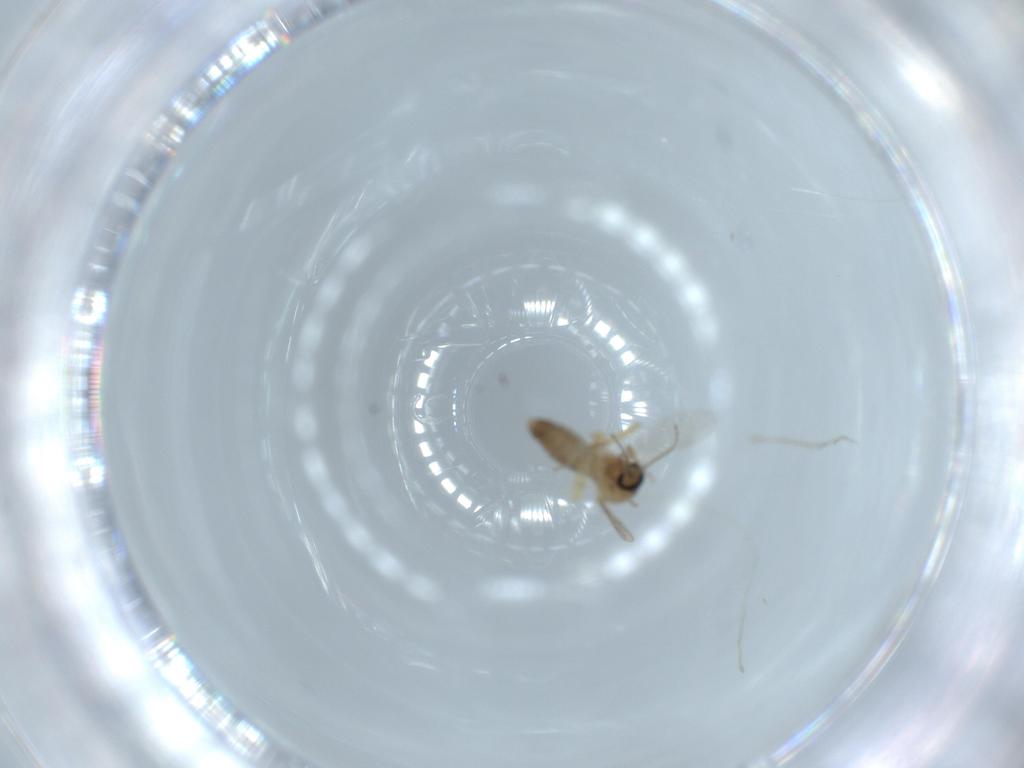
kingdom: Animalia
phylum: Arthropoda
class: Insecta
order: Diptera
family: Ceratopogonidae
